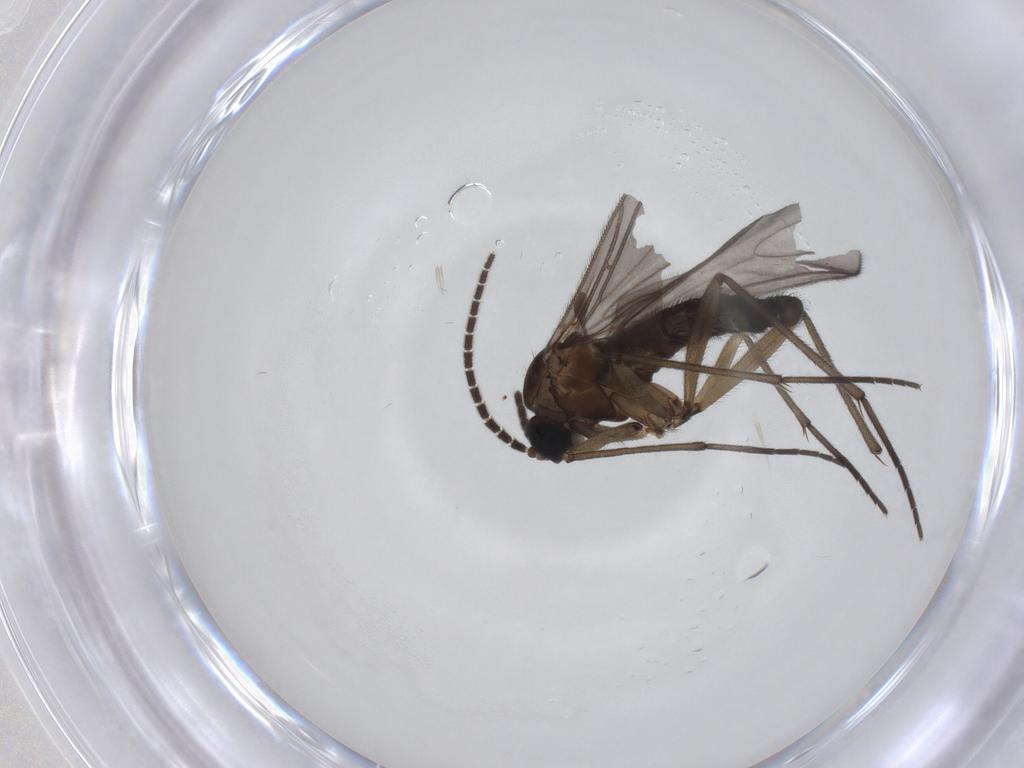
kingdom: Animalia
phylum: Arthropoda
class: Insecta
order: Diptera
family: Sciaridae
